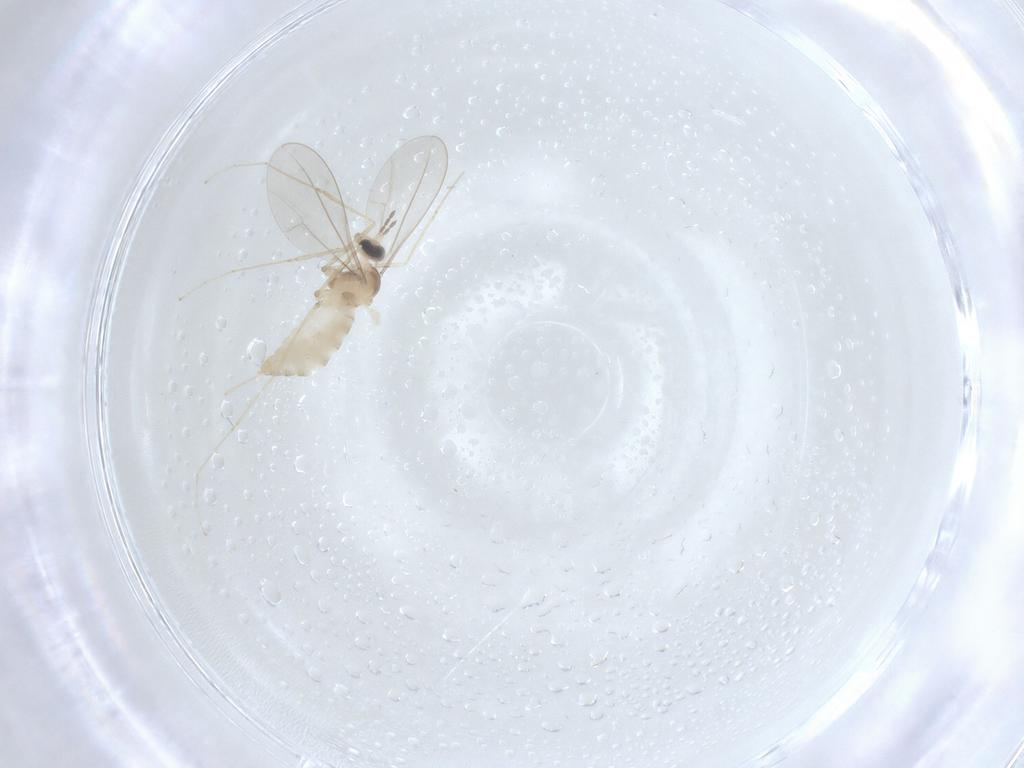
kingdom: Animalia
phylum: Arthropoda
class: Insecta
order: Diptera
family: Cecidomyiidae
